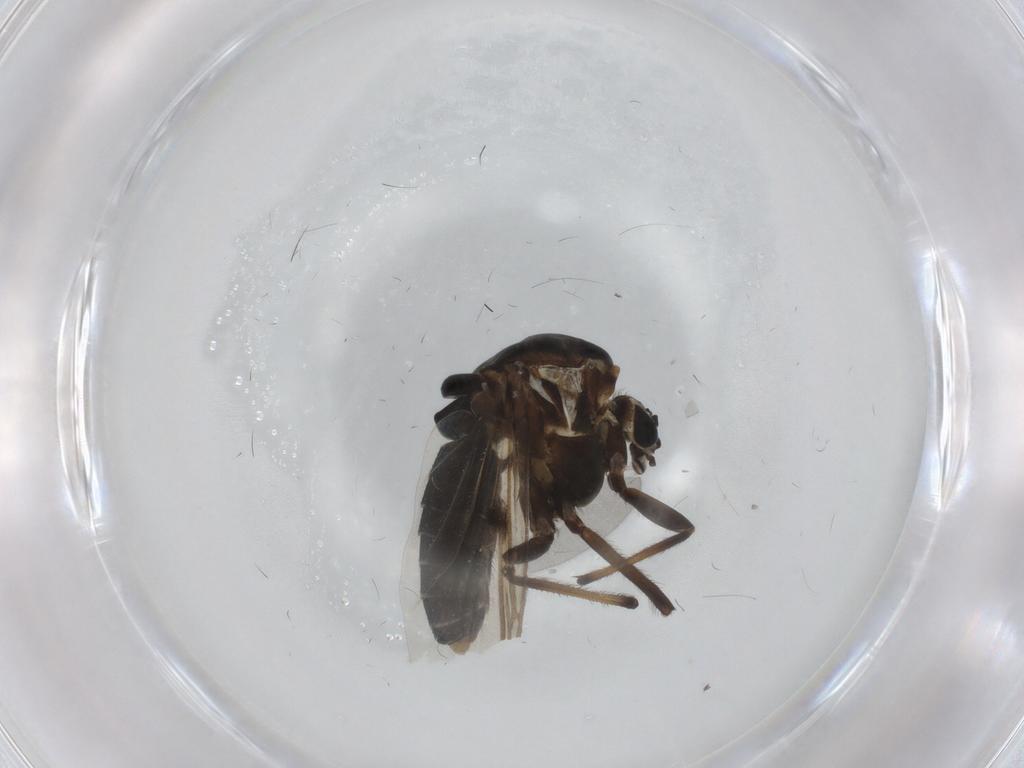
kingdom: Animalia
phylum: Arthropoda
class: Insecta
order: Diptera
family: Chironomidae
